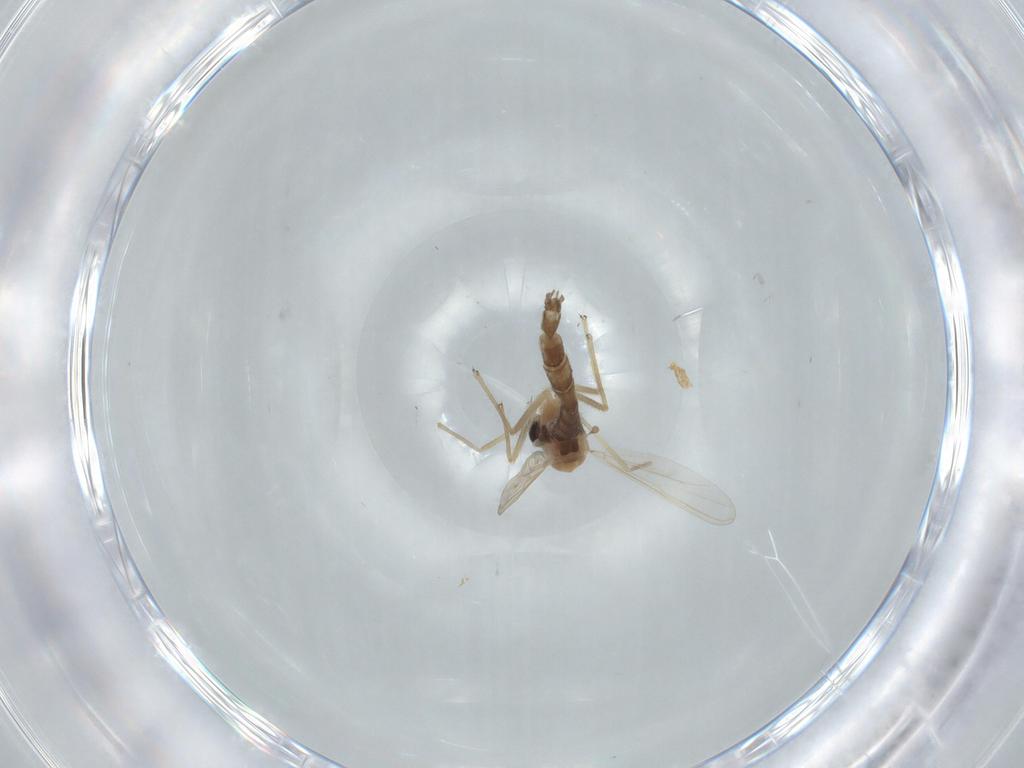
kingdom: Animalia
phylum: Arthropoda
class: Insecta
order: Diptera
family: Chironomidae
